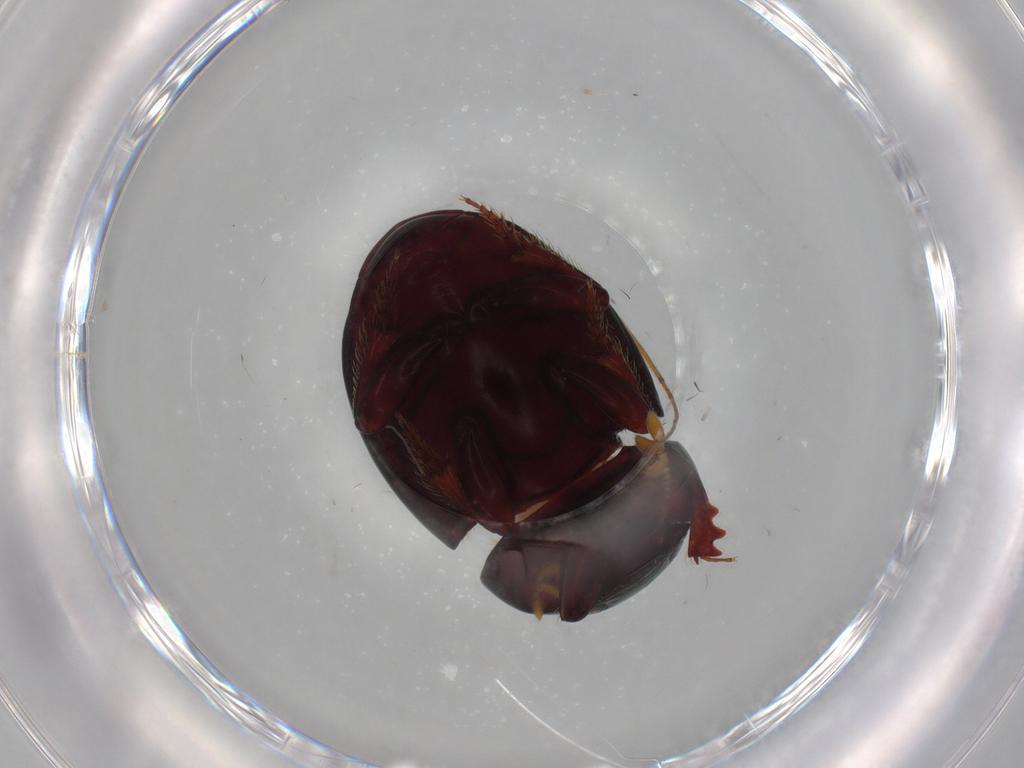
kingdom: Animalia
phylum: Arthropoda
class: Insecta
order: Coleoptera
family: Scarabaeidae
